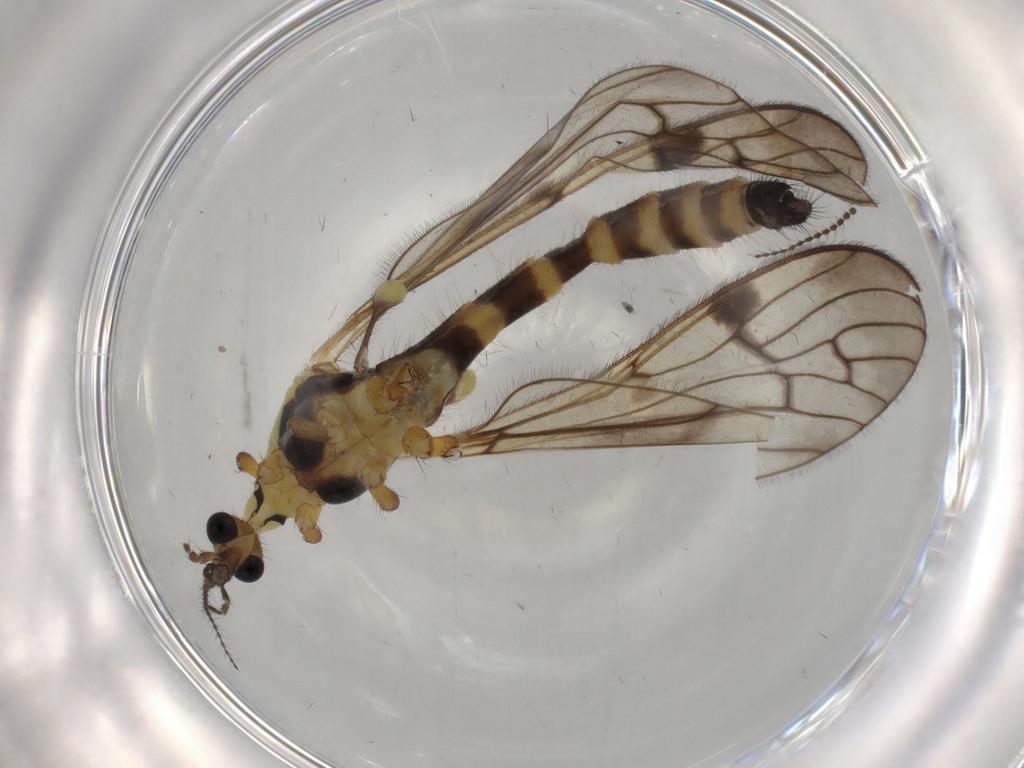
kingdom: Animalia
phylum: Arthropoda
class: Insecta
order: Diptera
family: Limoniidae
